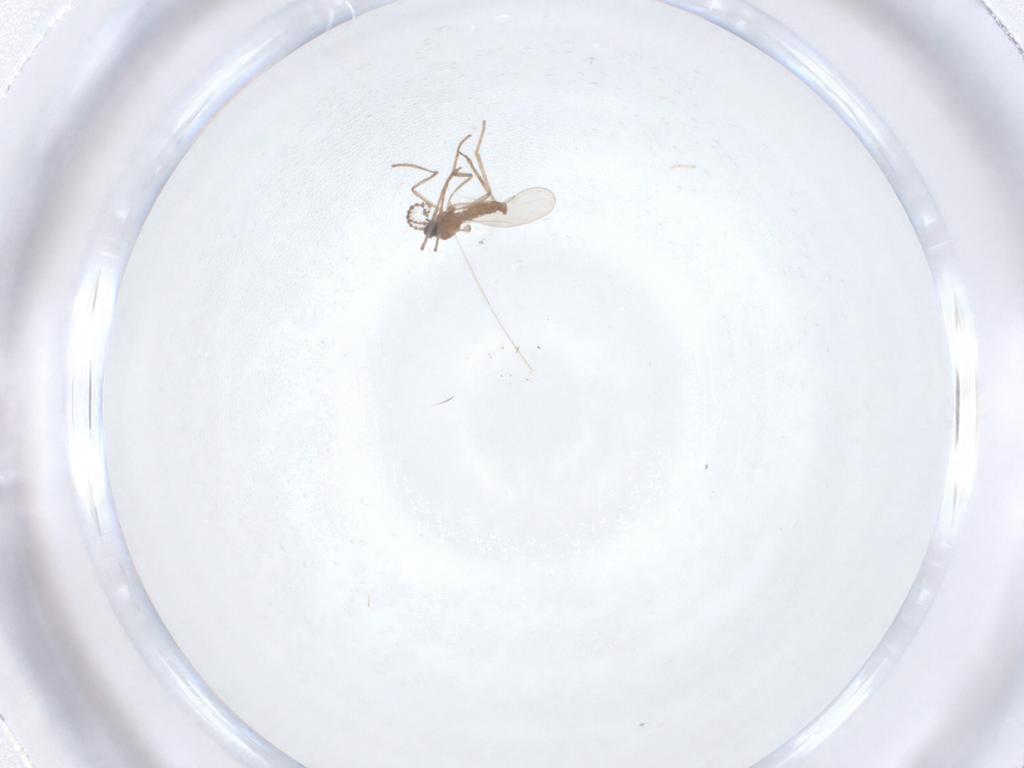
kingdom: Animalia
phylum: Arthropoda
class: Insecta
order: Diptera
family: Cecidomyiidae
